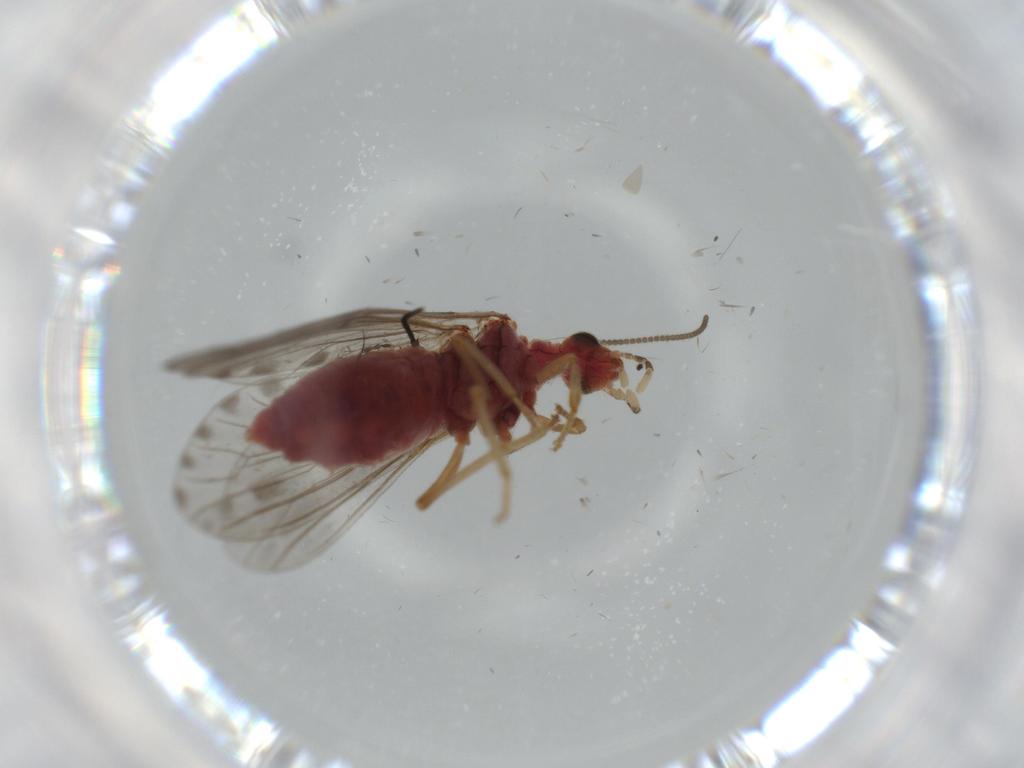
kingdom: Animalia
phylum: Arthropoda
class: Insecta
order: Neuroptera
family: Coniopterygidae
